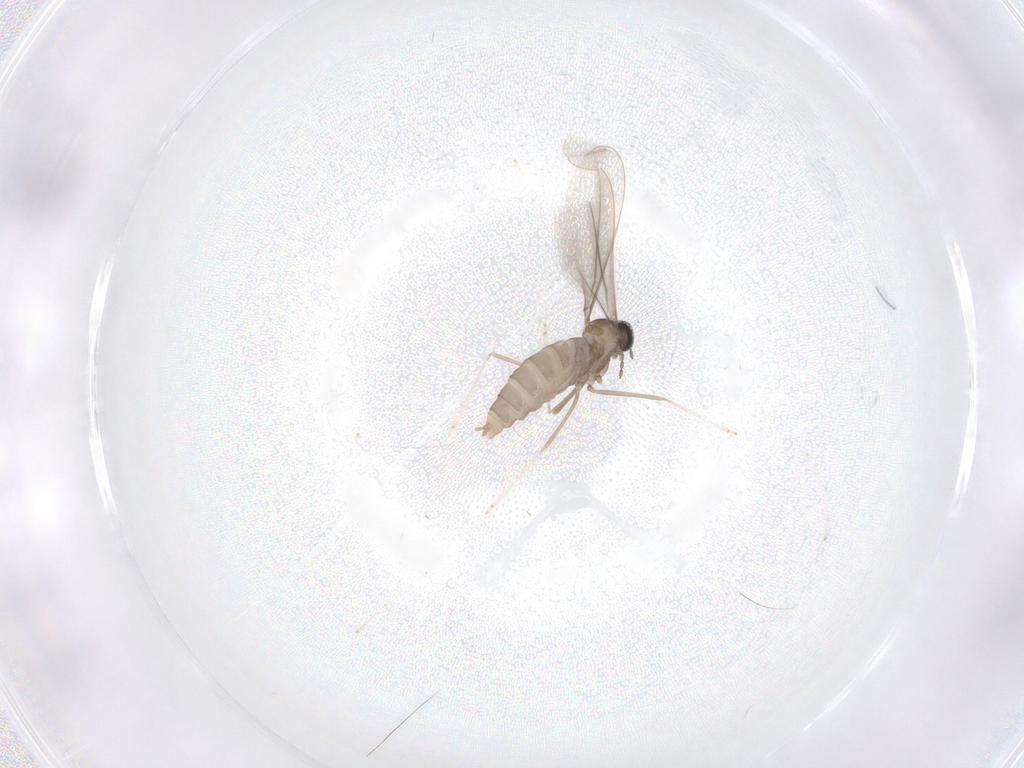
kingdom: Animalia
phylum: Arthropoda
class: Insecta
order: Diptera
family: Cecidomyiidae
